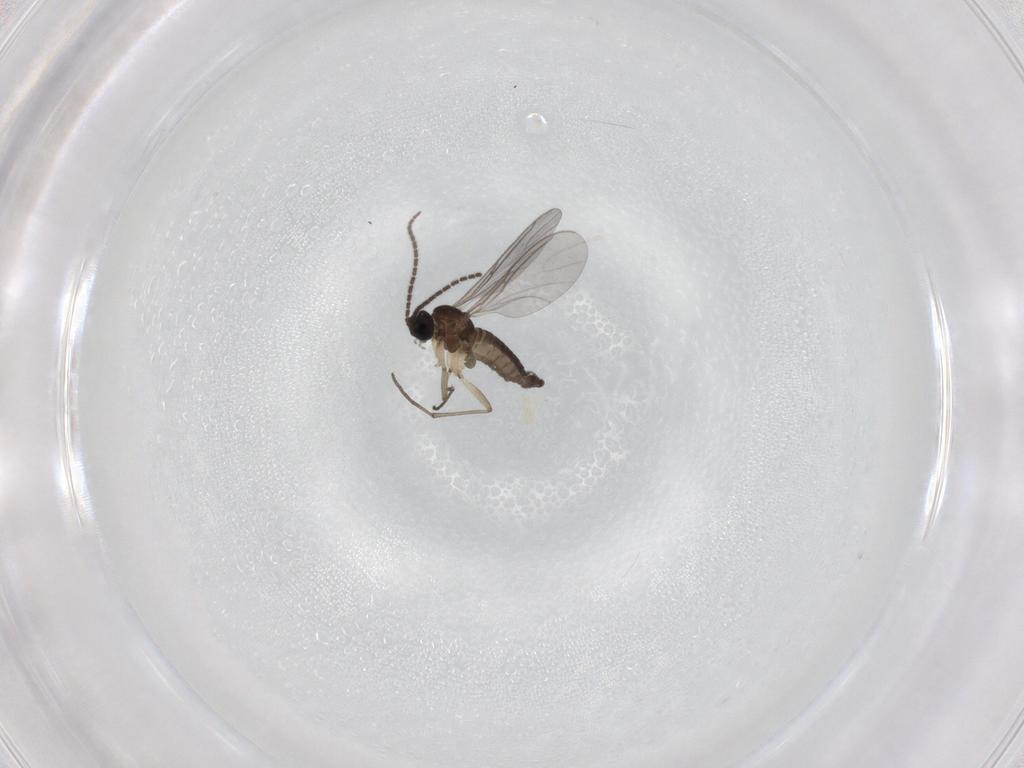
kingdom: Animalia
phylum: Arthropoda
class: Insecta
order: Diptera
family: Sciaridae
